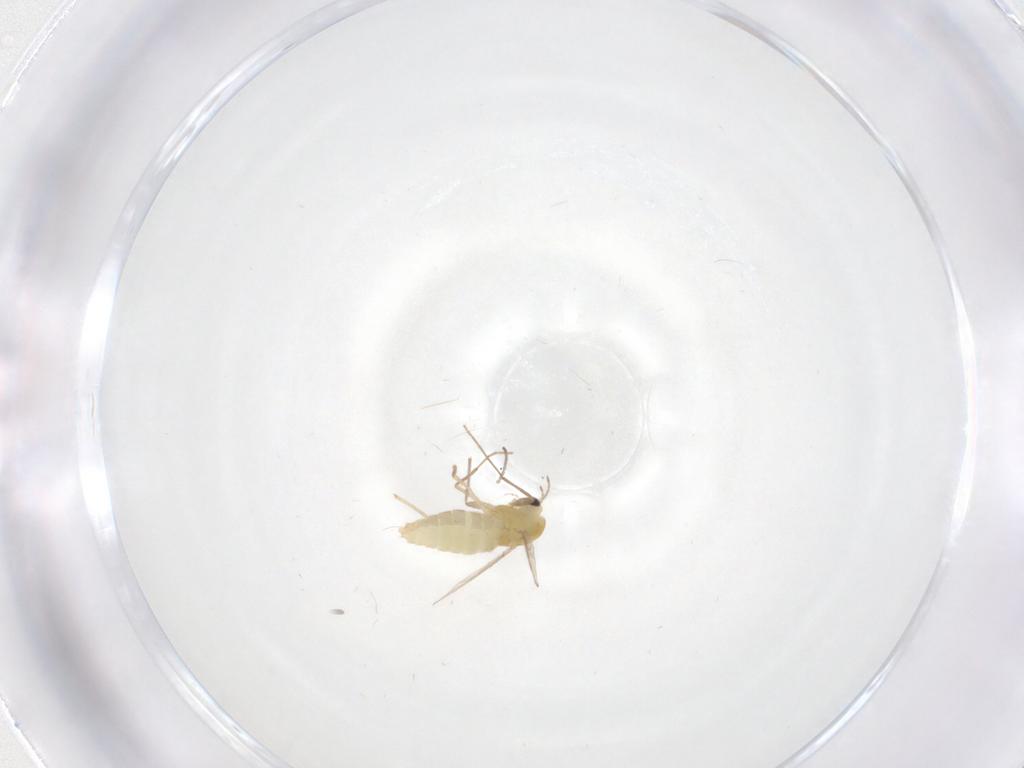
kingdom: Animalia
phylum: Arthropoda
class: Insecta
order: Diptera
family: Chironomidae
